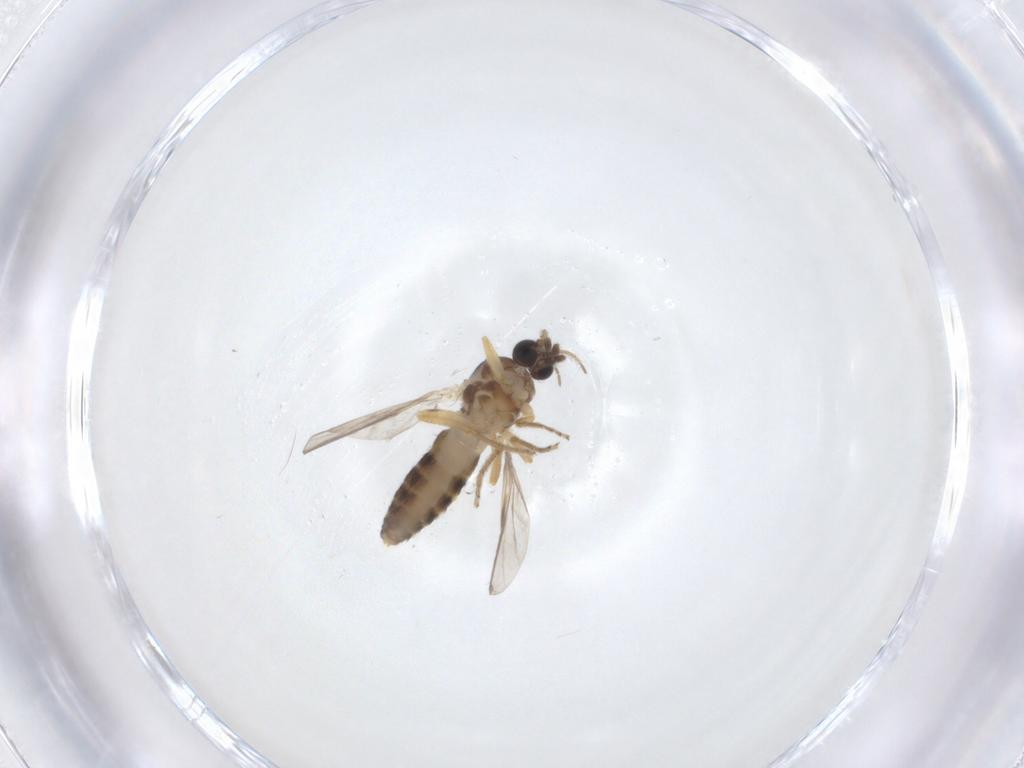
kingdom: Animalia
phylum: Arthropoda
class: Insecta
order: Diptera
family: Ceratopogonidae
